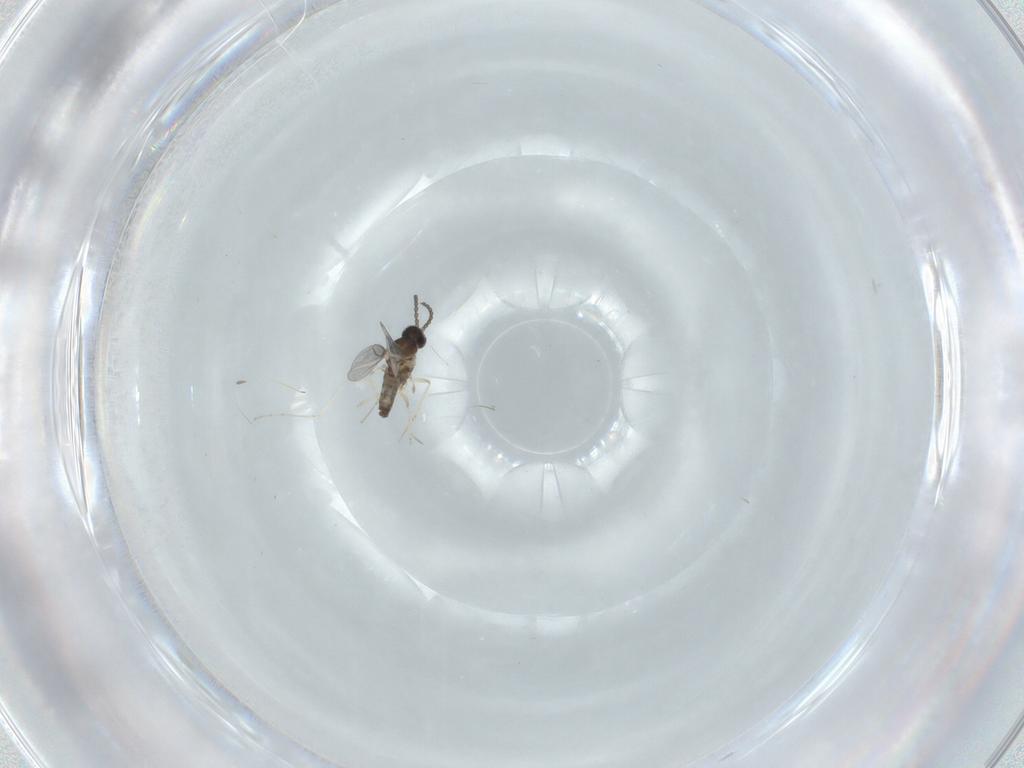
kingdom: Animalia
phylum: Arthropoda
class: Insecta
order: Diptera
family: Cecidomyiidae
